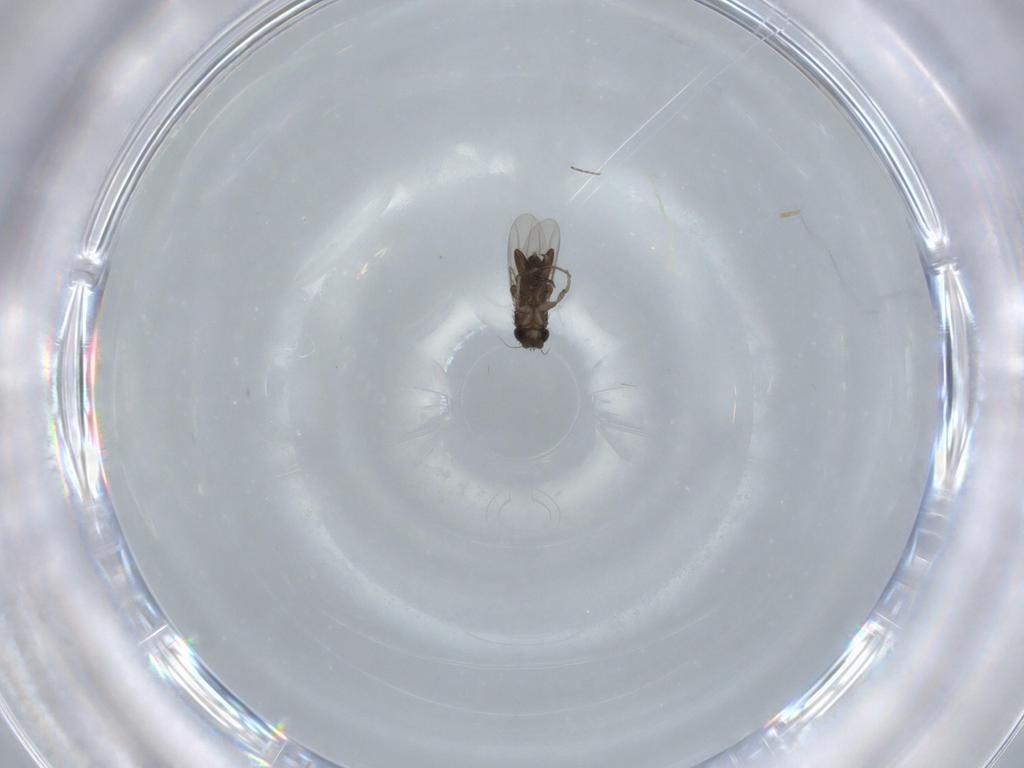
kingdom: Animalia
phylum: Arthropoda
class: Insecta
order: Diptera
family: Phoridae
